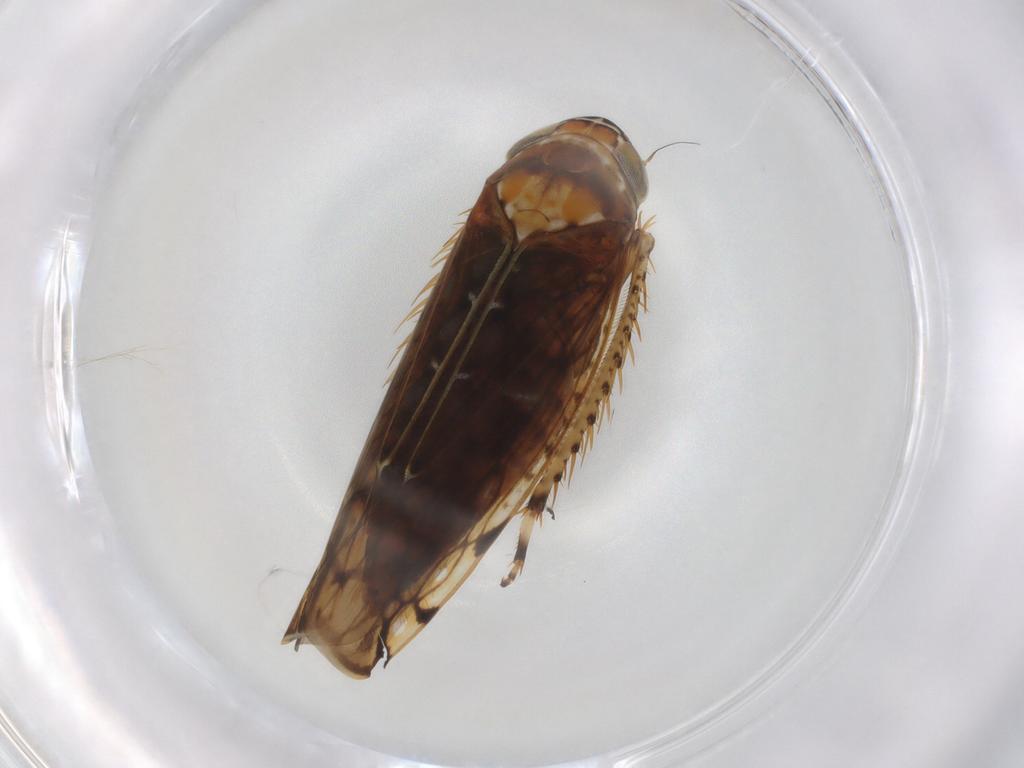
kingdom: Animalia
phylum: Arthropoda
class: Insecta
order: Hemiptera
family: Cicadellidae
